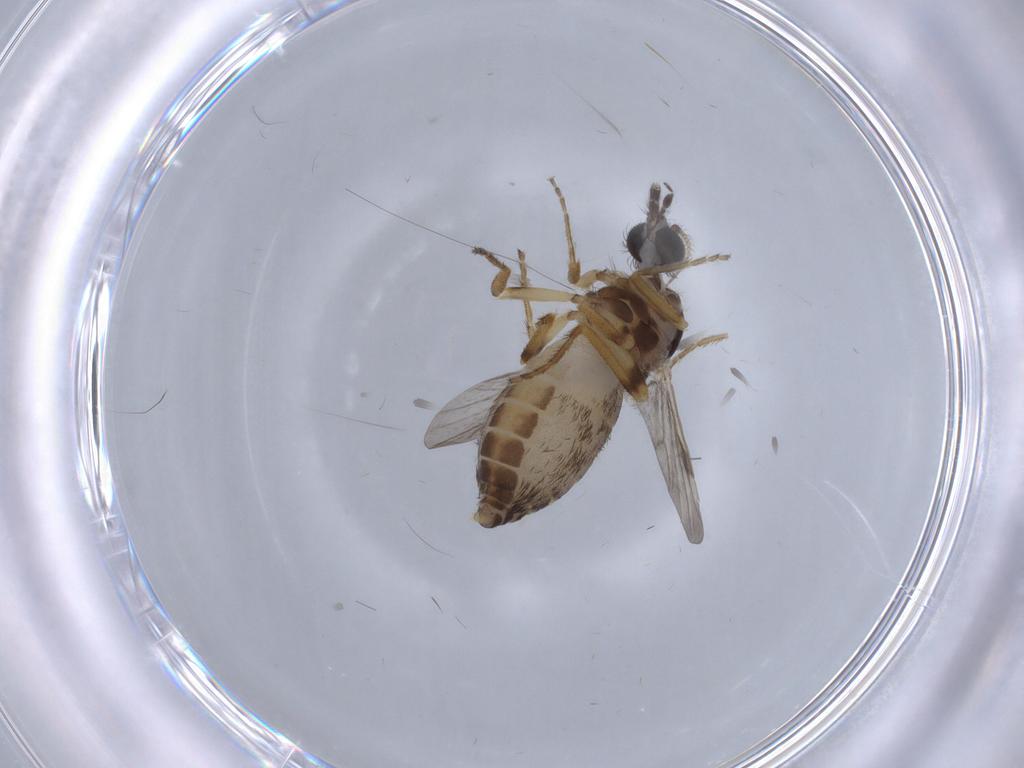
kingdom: Animalia
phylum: Arthropoda
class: Insecta
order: Diptera
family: Ceratopogonidae
